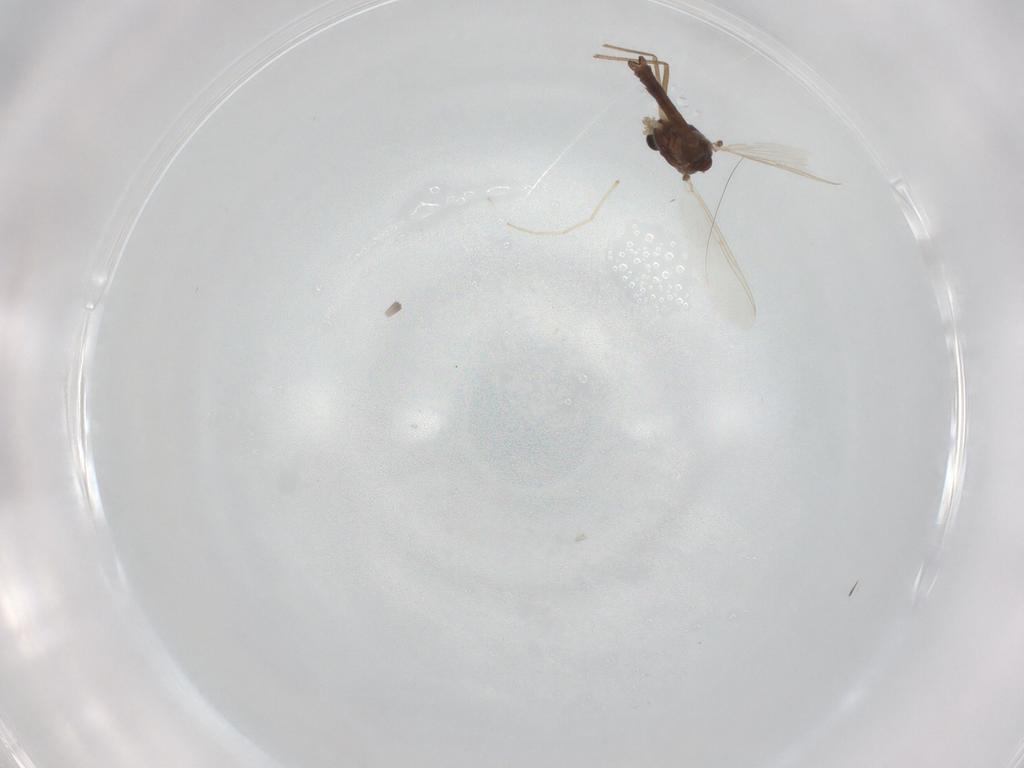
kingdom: Animalia
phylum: Arthropoda
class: Insecta
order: Diptera
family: Chironomidae
